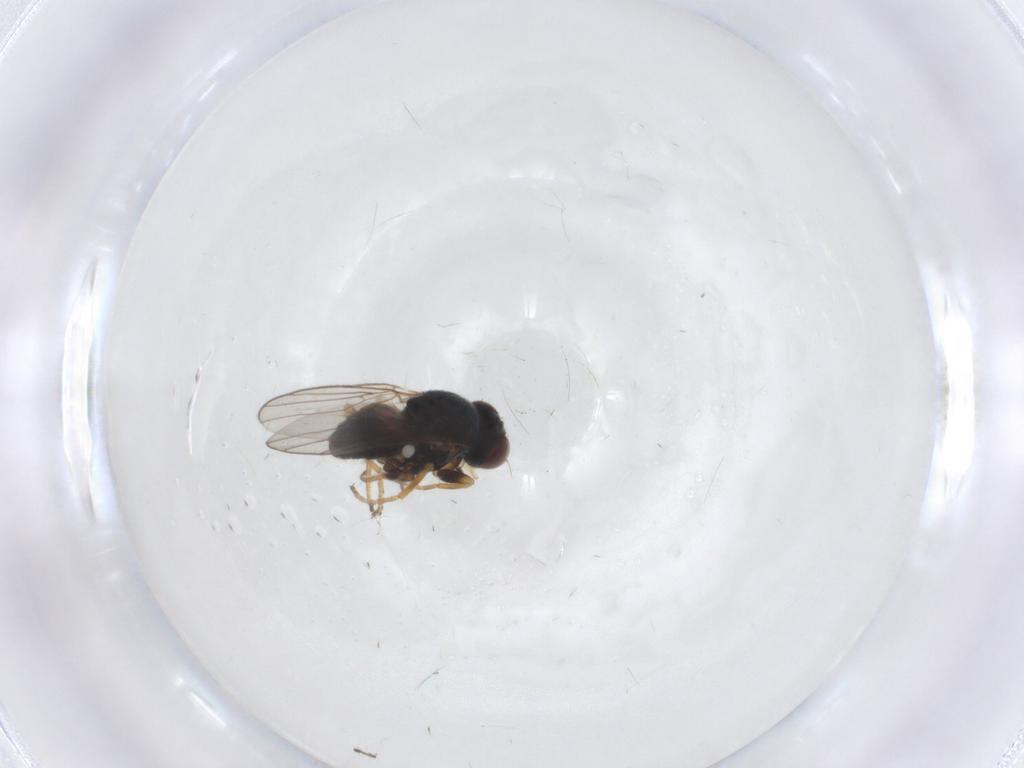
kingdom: Animalia
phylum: Arthropoda
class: Insecta
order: Diptera
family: Chloropidae
